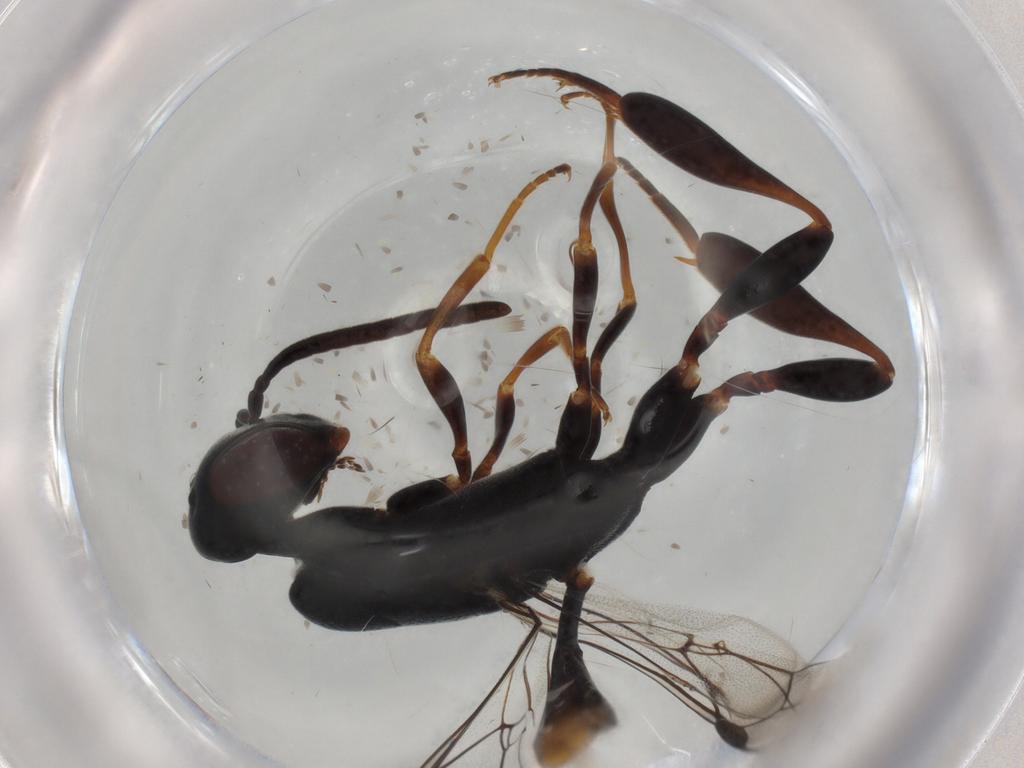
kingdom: Animalia
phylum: Arthropoda
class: Insecta
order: Hymenoptera
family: Gasteruptiidae
